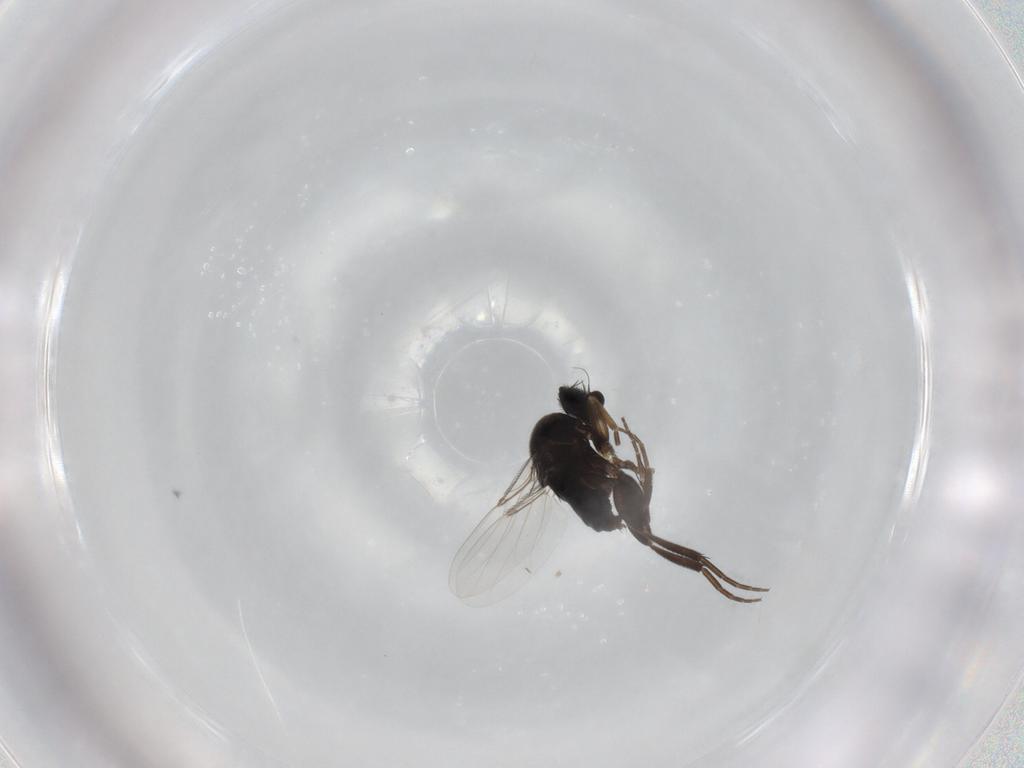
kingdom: Animalia
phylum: Arthropoda
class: Insecta
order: Diptera
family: Phoridae
